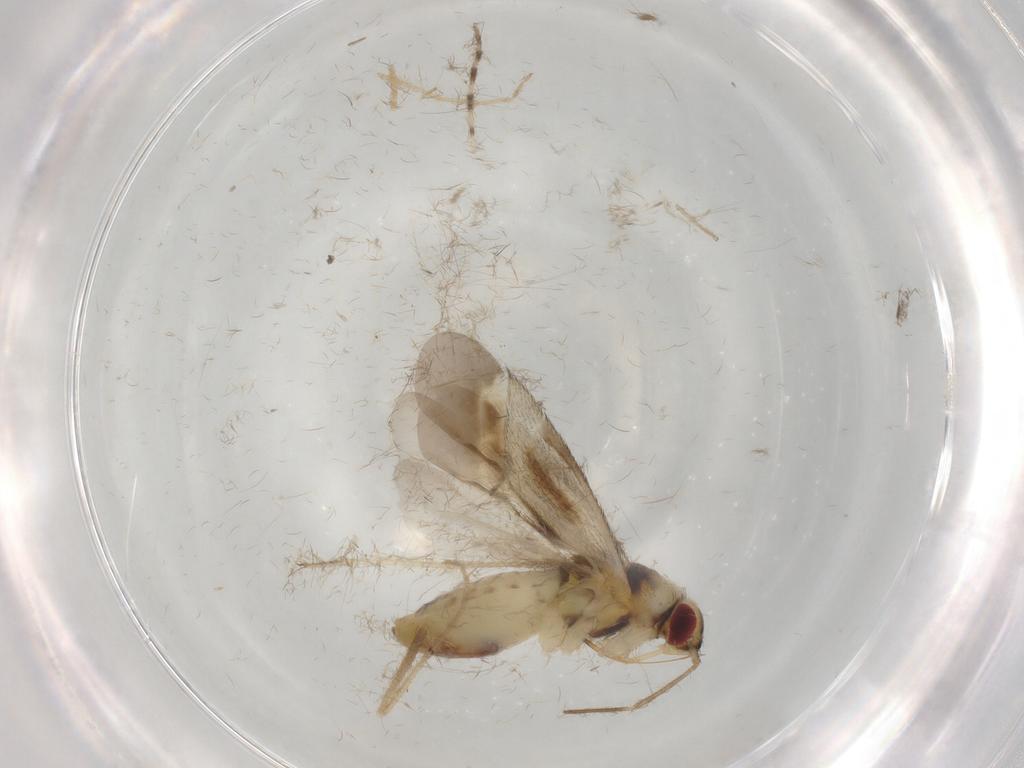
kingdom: Animalia
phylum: Arthropoda
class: Insecta
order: Hemiptera
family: Miridae
